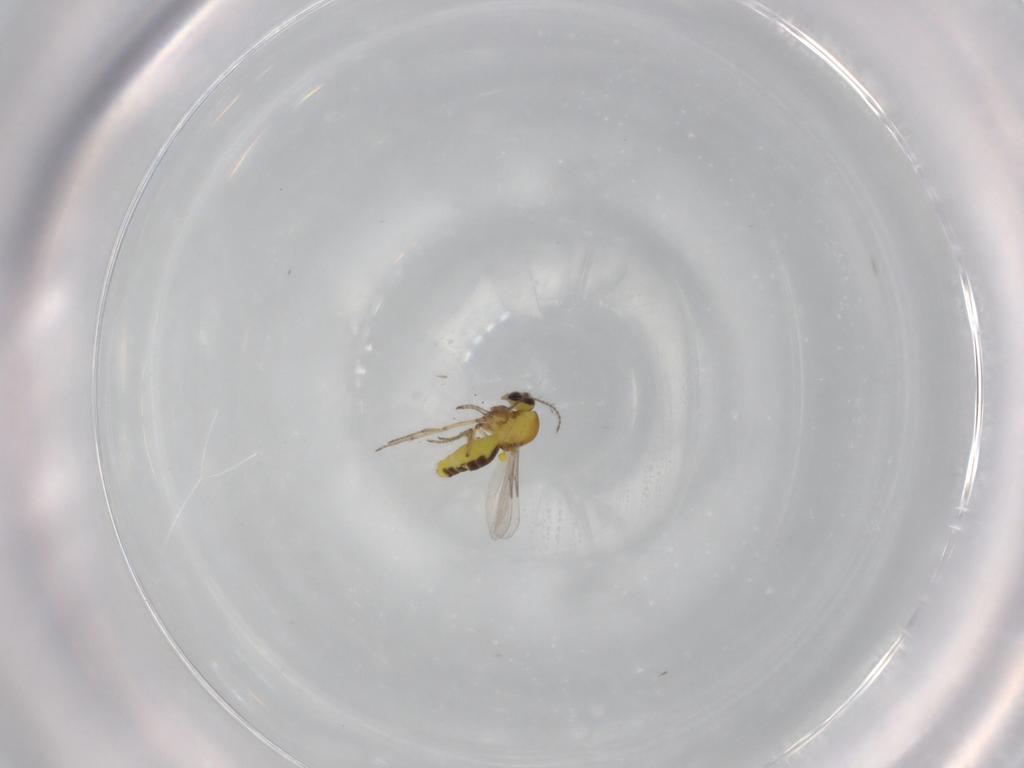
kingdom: Animalia
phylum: Arthropoda
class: Insecta
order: Diptera
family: Ceratopogonidae
